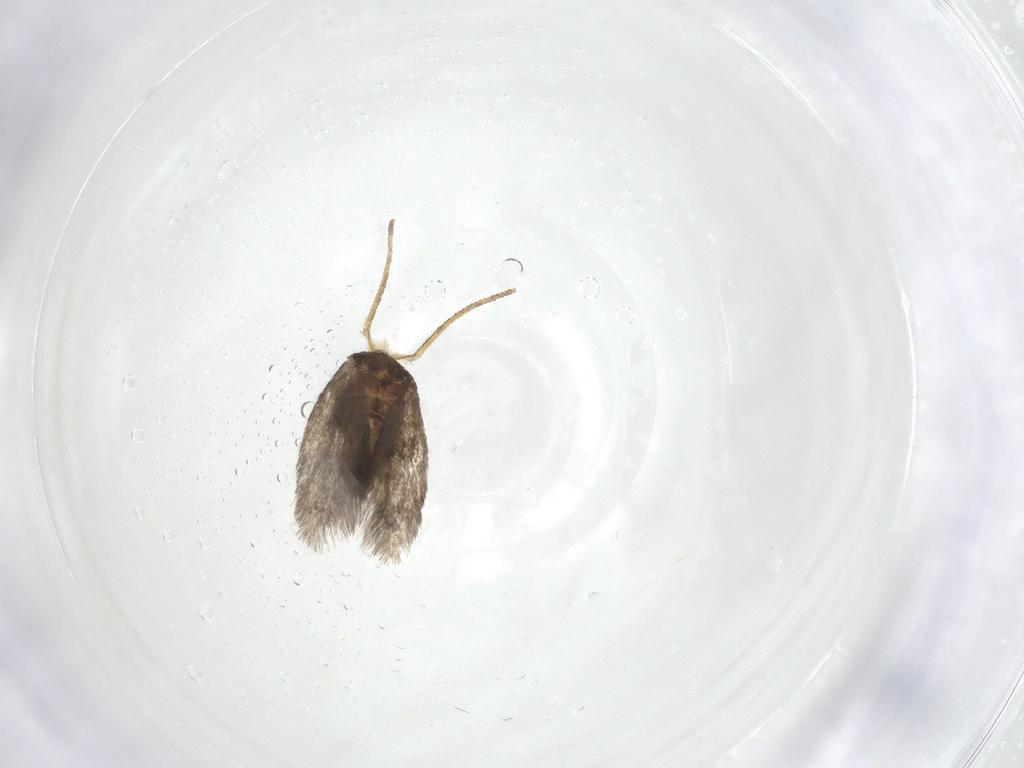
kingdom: Animalia
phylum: Arthropoda
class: Insecta
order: Lepidoptera
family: Nepticulidae
